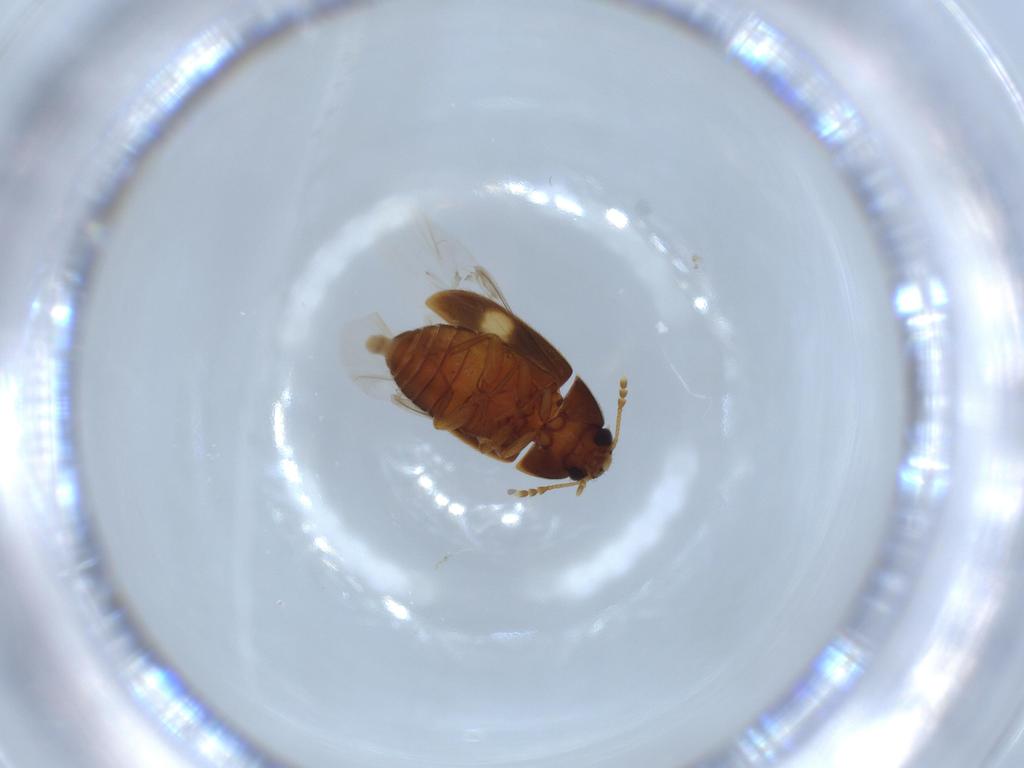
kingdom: Animalia
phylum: Arthropoda
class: Insecta
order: Coleoptera
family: Mycetophagidae
